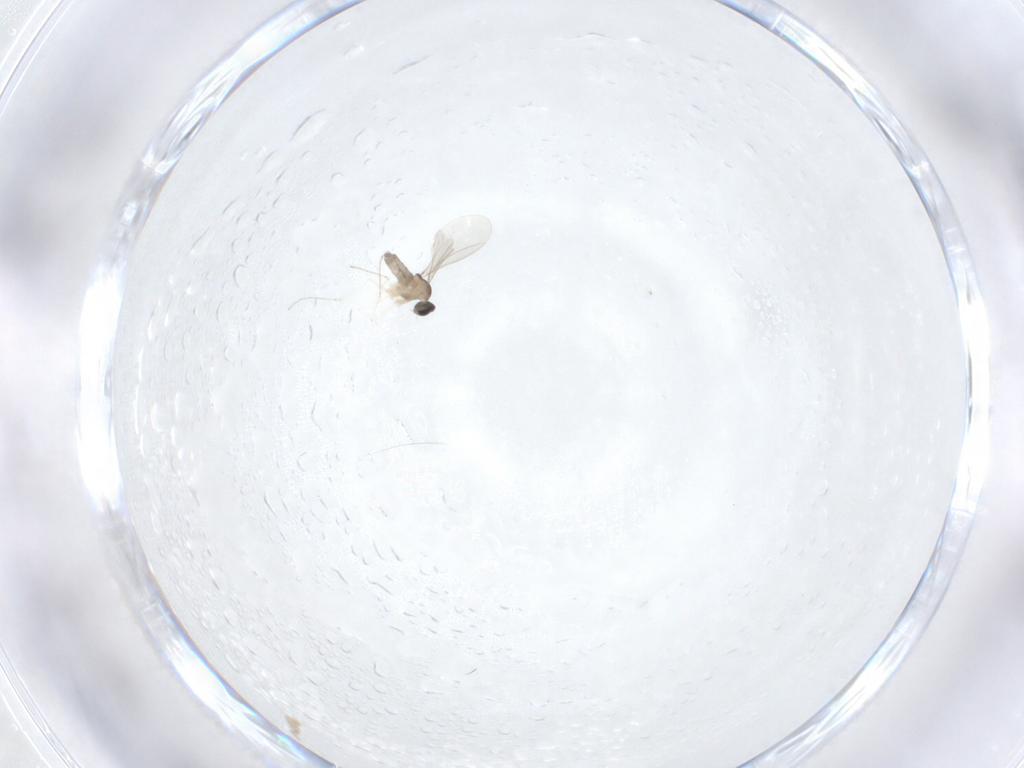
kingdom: Animalia
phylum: Arthropoda
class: Insecta
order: Diptera
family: Cecidomyiidae
